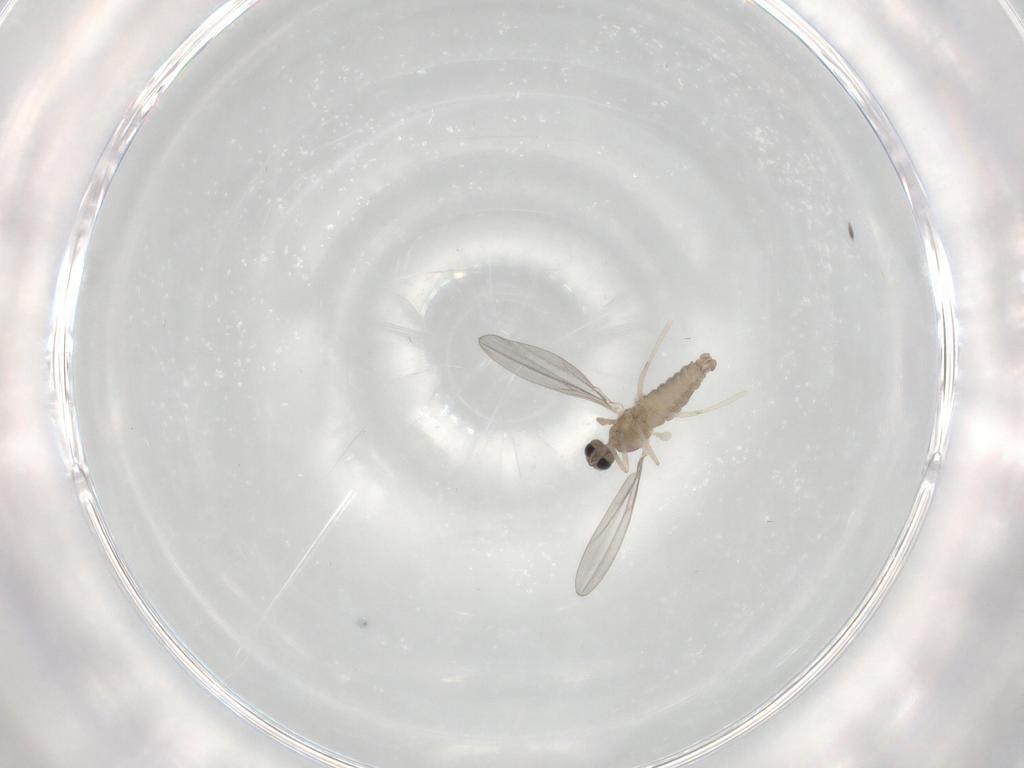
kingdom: Animalia
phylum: Arthropoda
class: Insecta
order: Diptera
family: Cecidomyiidae
